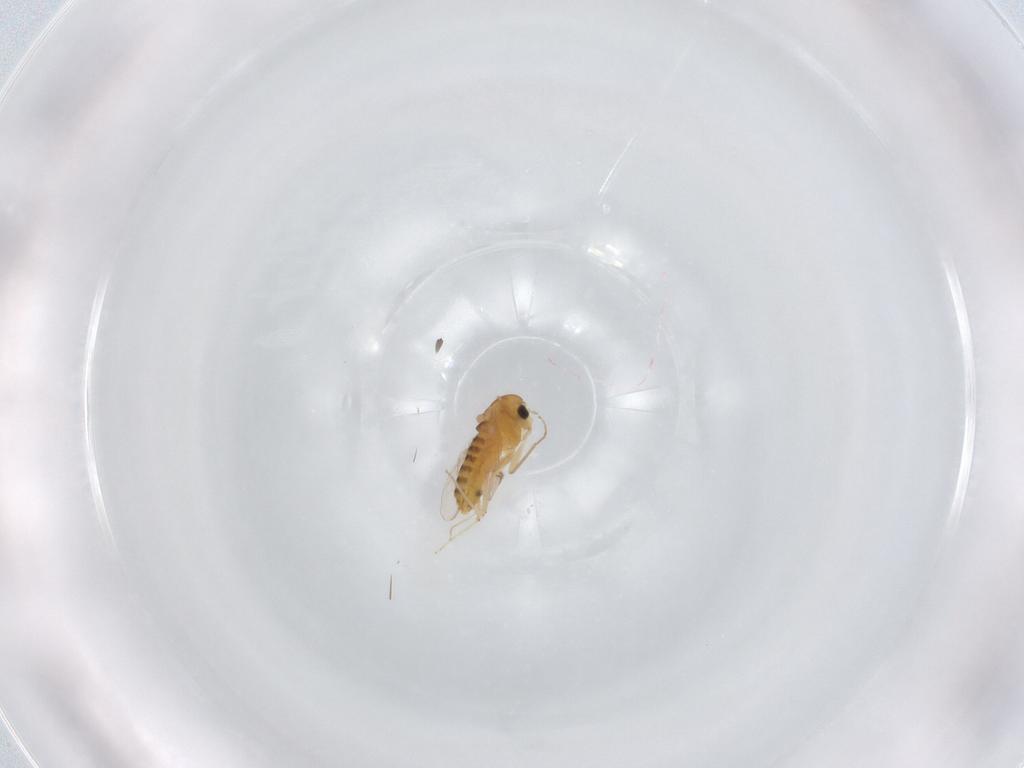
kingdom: Animalia
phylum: Arthropoda
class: Insecta
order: Diptera
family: Chironomidae
